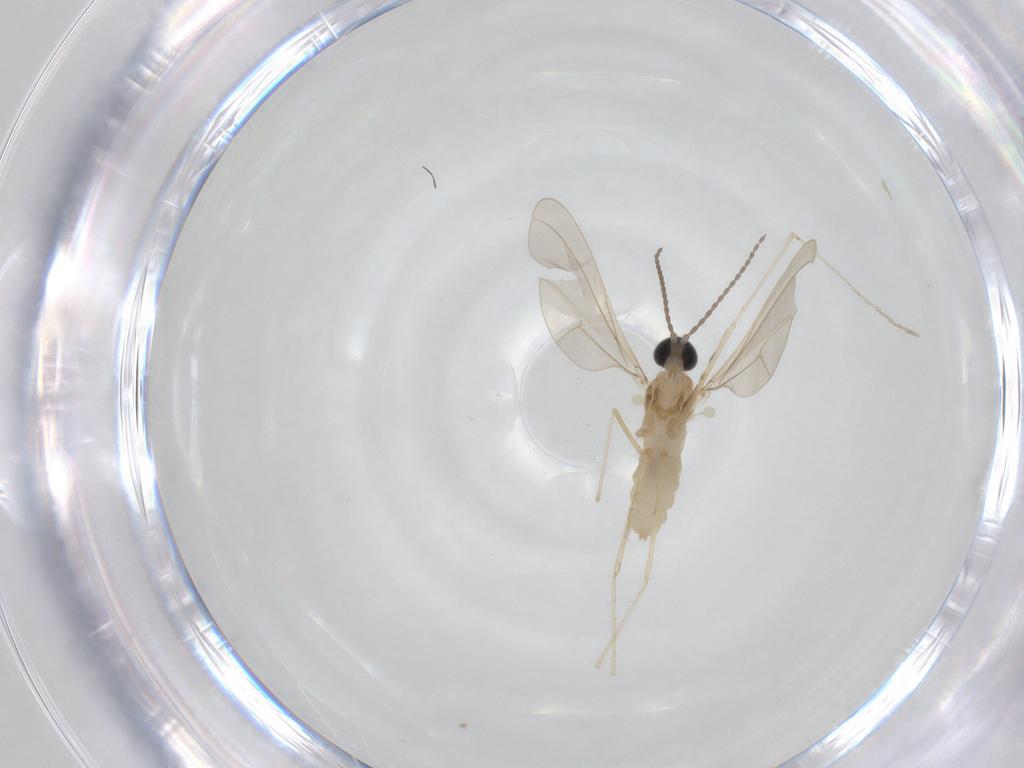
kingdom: Animalia
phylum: Arthropoda
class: Insecta
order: Diptera
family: Cecidomyiidae
